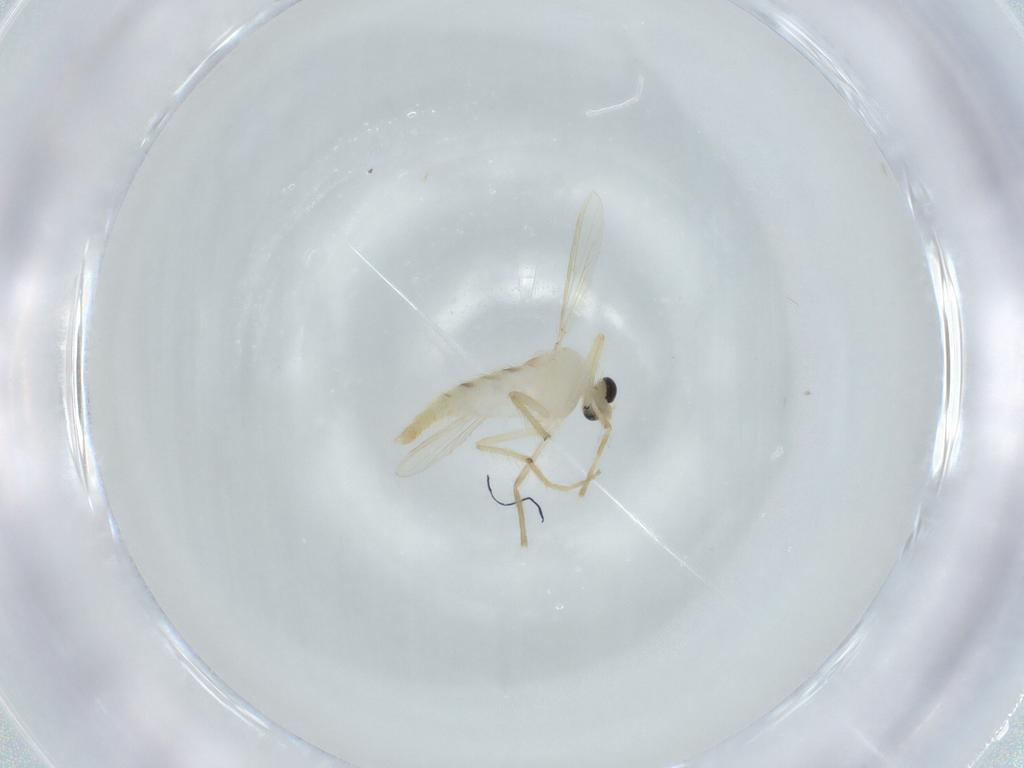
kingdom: Animalia
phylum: Arthropoda
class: Insecta
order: Diptera
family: Chironomidae
